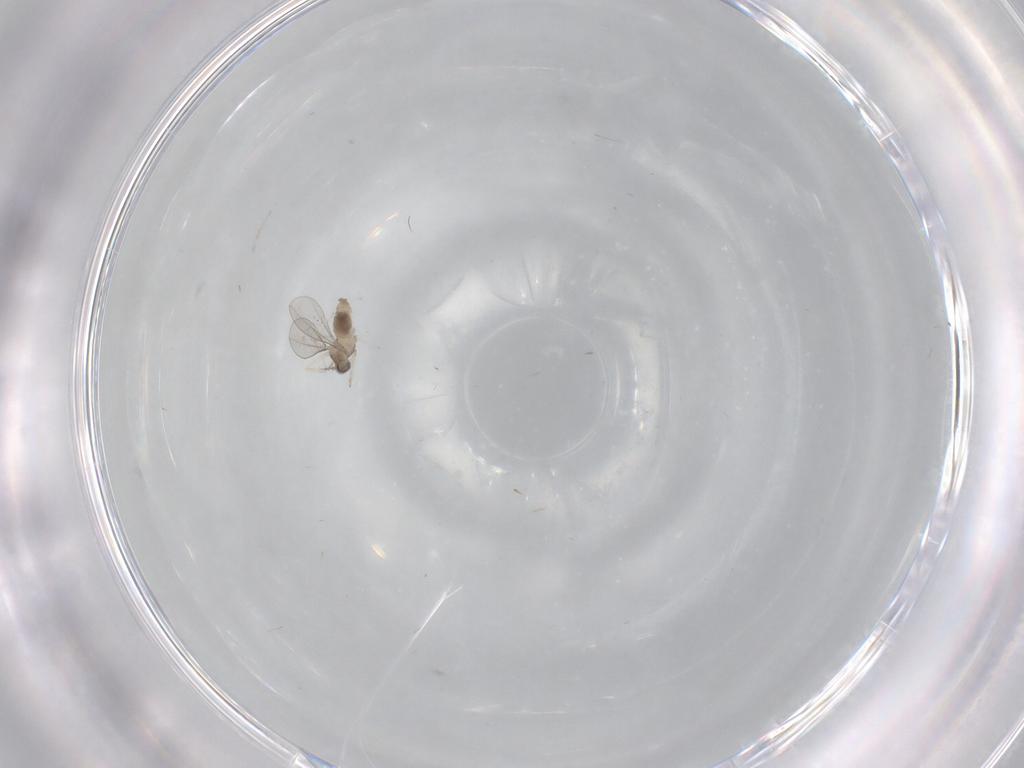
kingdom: Animalia
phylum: Arthropoda
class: Insecta
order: Diptera
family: Cecidomyiidae
